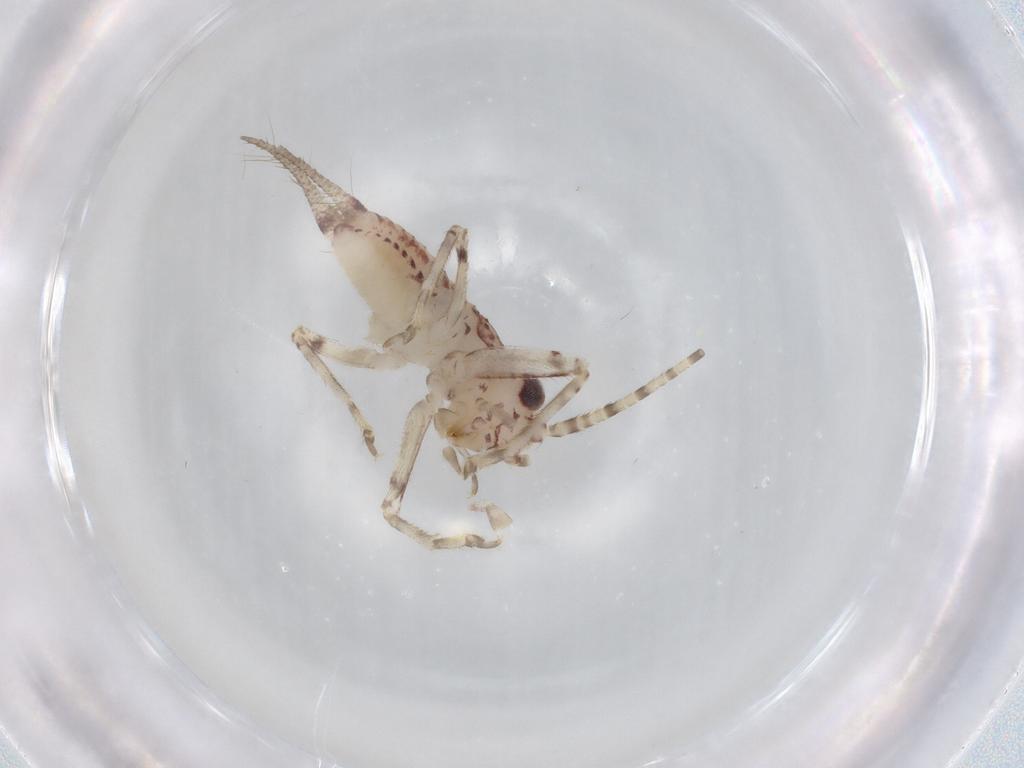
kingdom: Animalia
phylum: Arthropoda
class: Insecta
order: Orthoptera
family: Trigonidiidae
